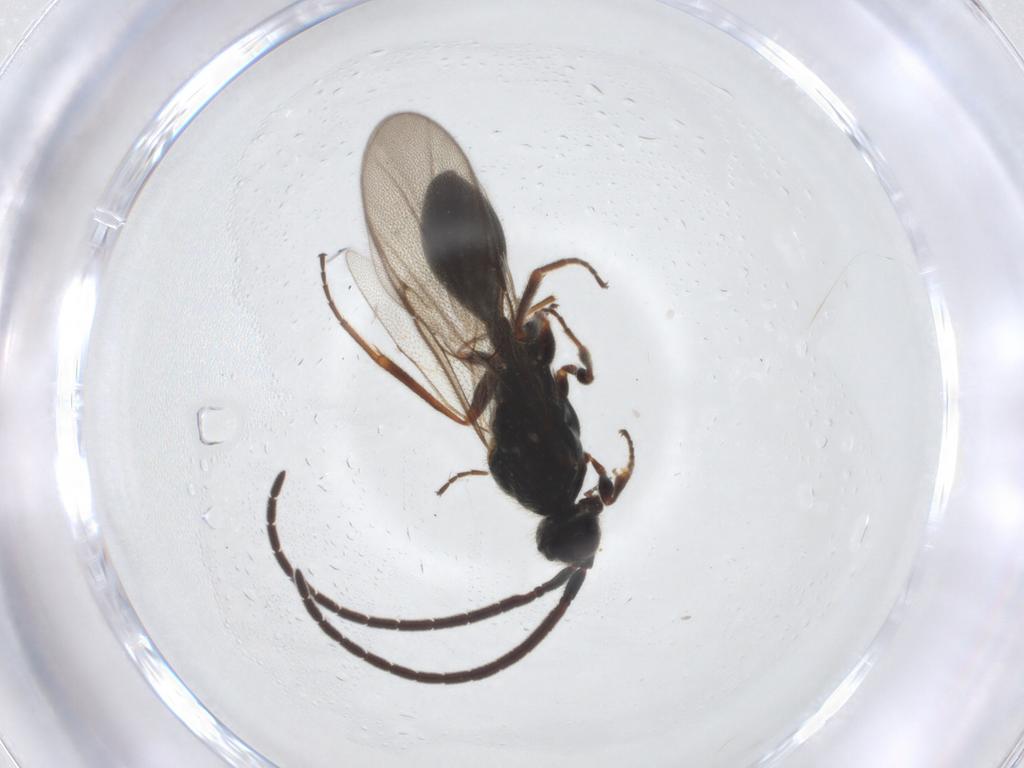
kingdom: Animalia
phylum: Arthropoda
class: Insecta
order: Hymenoptera
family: Diapriidae
